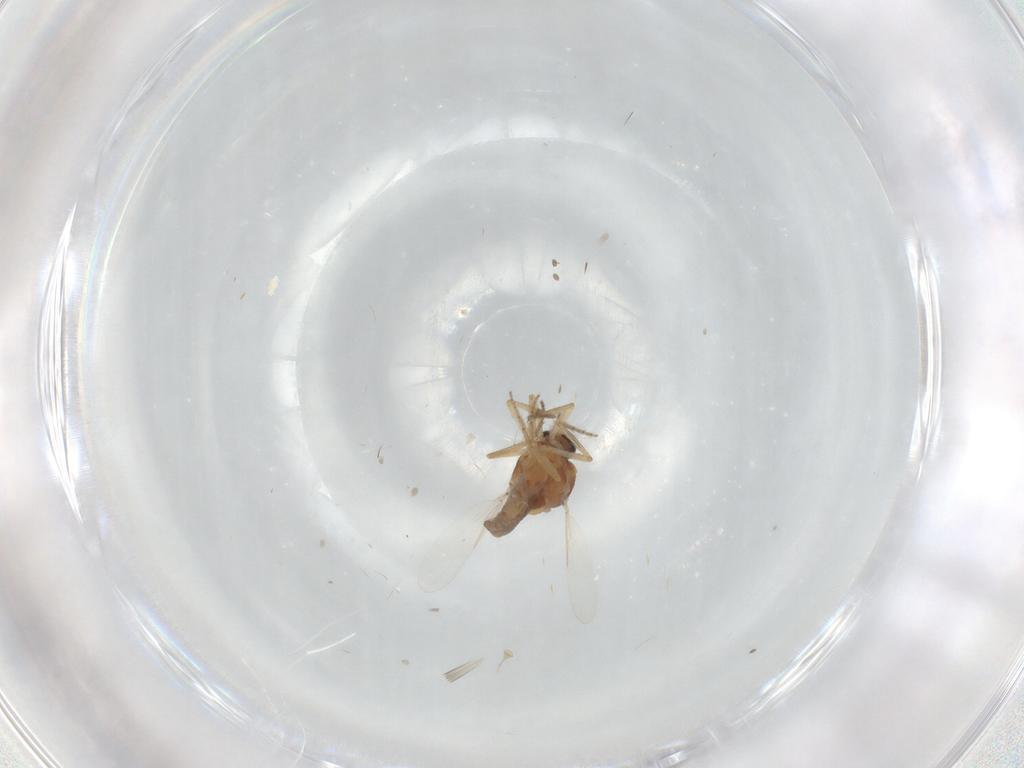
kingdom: Animalia
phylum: Arthropoda
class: Insecta
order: Diptera
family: Ceratopogonidae
